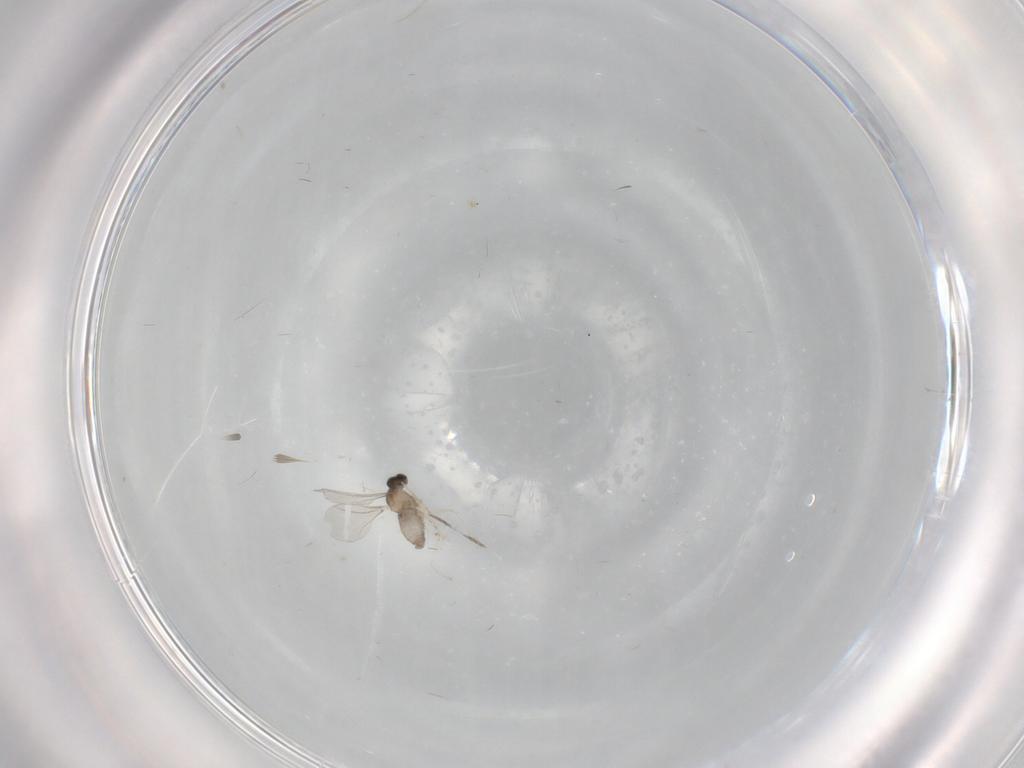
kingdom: Animalia
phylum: Arthropoda
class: Insecta
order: Diptera
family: Cecidomyiidae
